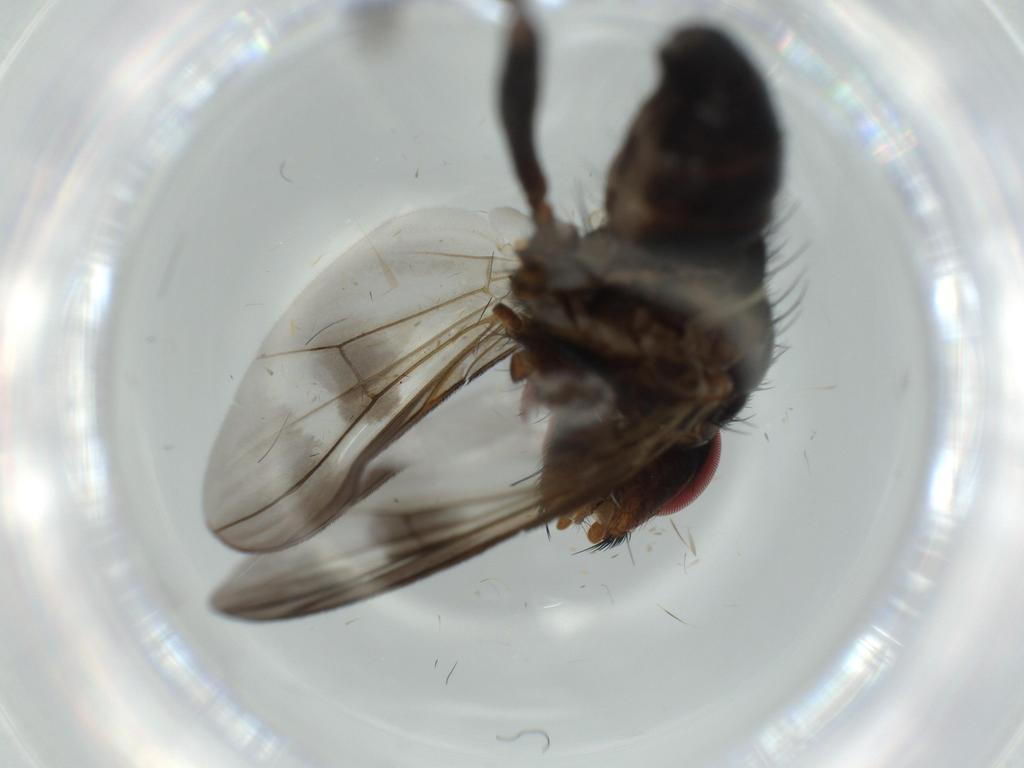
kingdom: Animalia
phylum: Arthropoda
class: Insecta
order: Diptera
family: Calliphoridae
